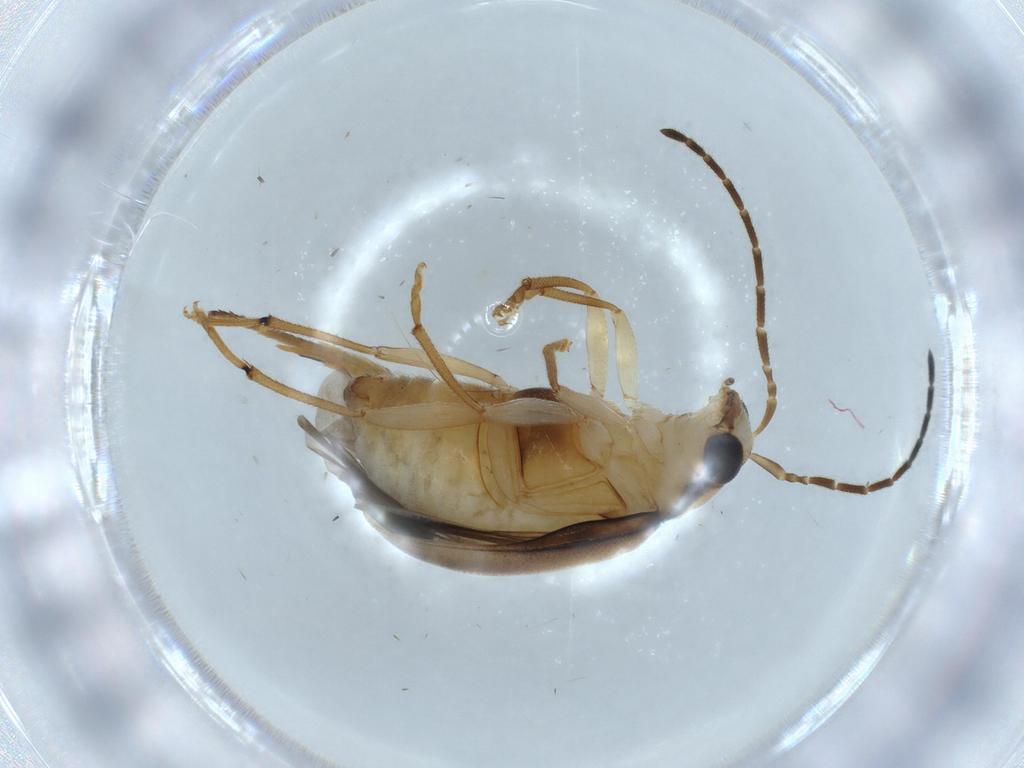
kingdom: Animalia
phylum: Arthropoda
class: Insecta
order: Coleoptera
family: Chrysomelidae
